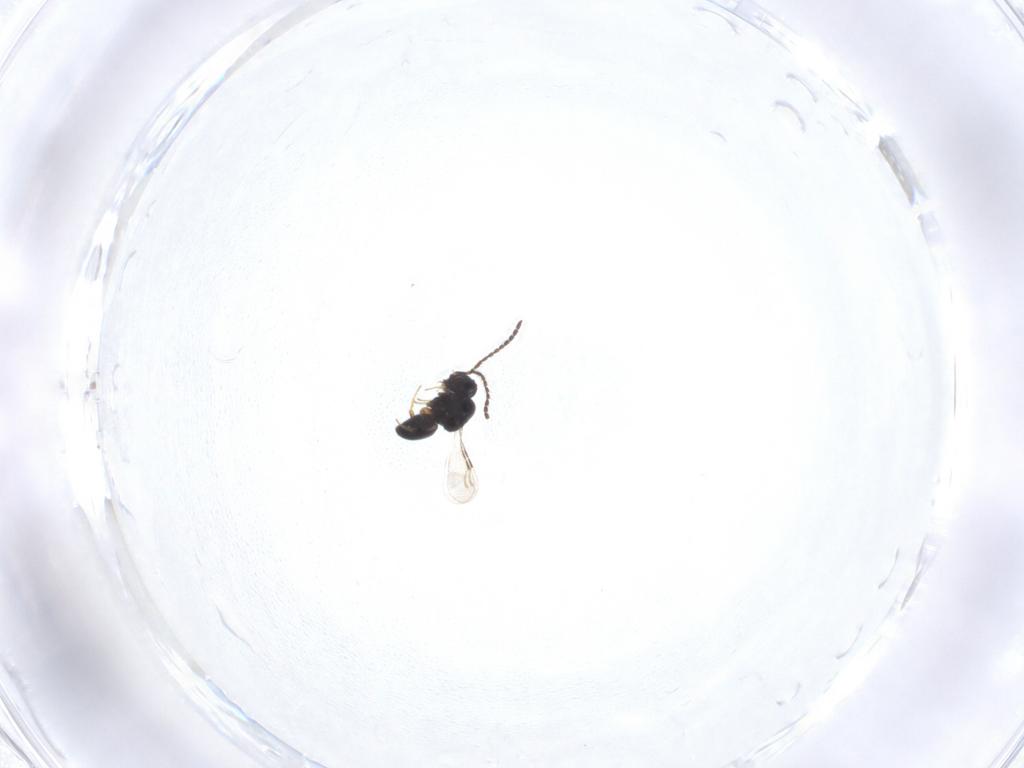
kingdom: Animalia
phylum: Arthropoda
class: Insecta
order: Hymenoptera
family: Ceraphronidae
